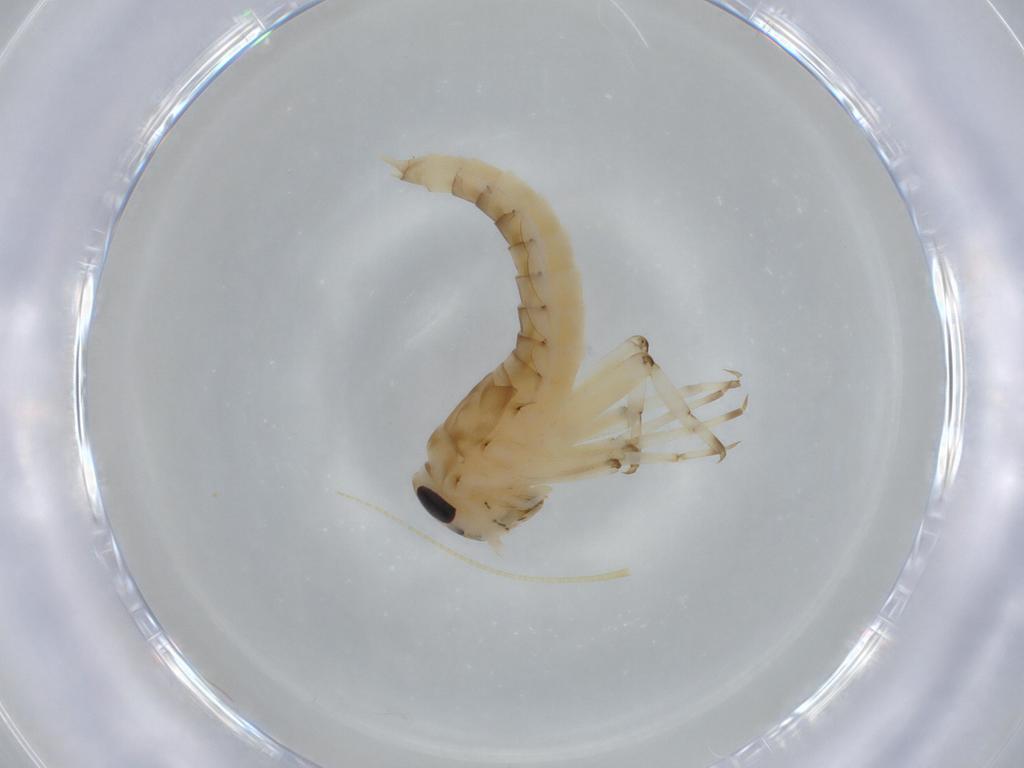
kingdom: Animalia
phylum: Arthropoda
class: Insecta
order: Ephemeroptera
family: Baetidae
